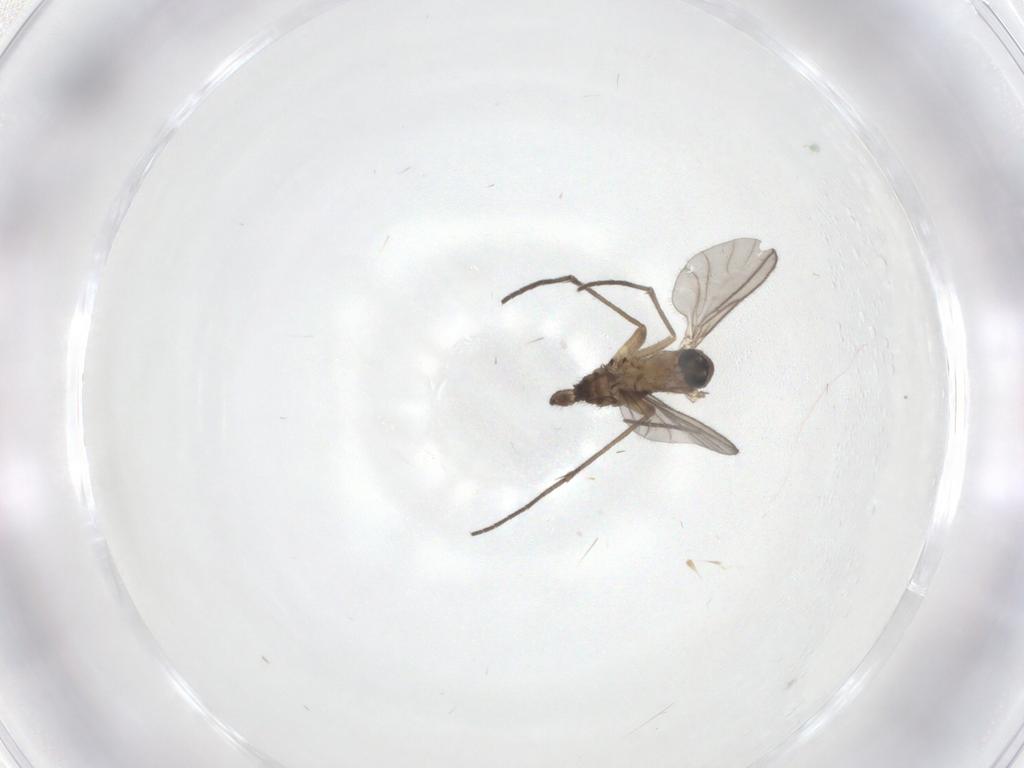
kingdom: Animalia
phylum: Arthropoda
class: Insecta
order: Diptera
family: Sciaridae
